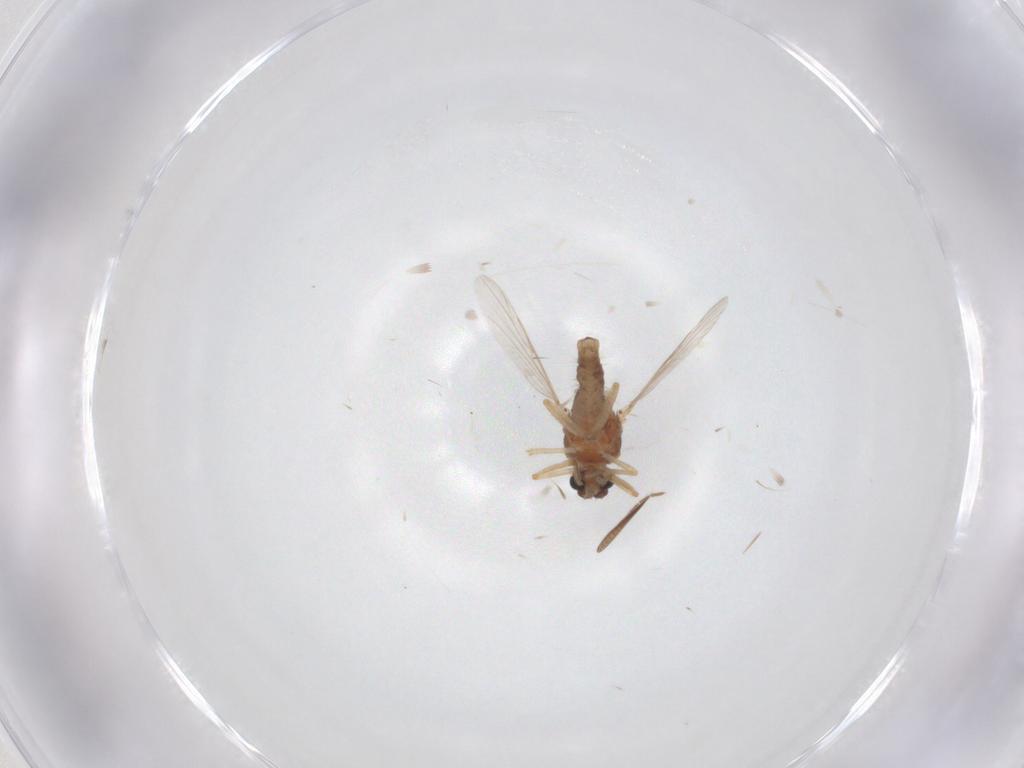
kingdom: Animalia
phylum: Arthropoda
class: Insecta
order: Diptera
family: Ceratopogonidae
